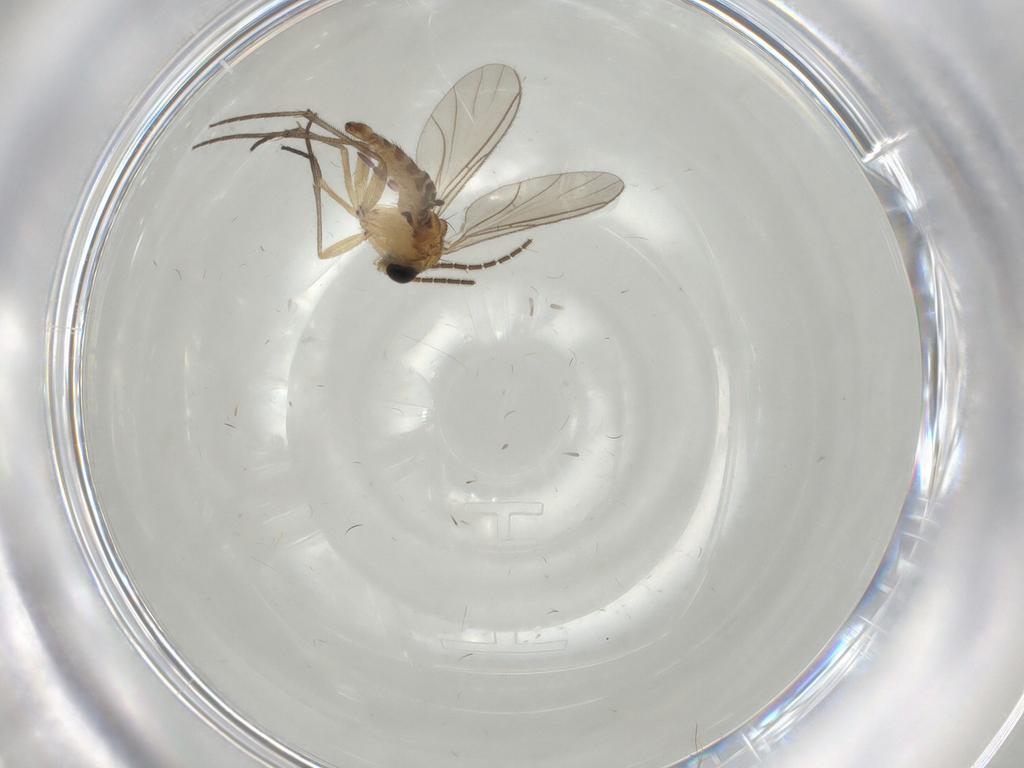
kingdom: Animalia
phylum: Arthropoda
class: Insecta
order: Diptera
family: Sciaridae
